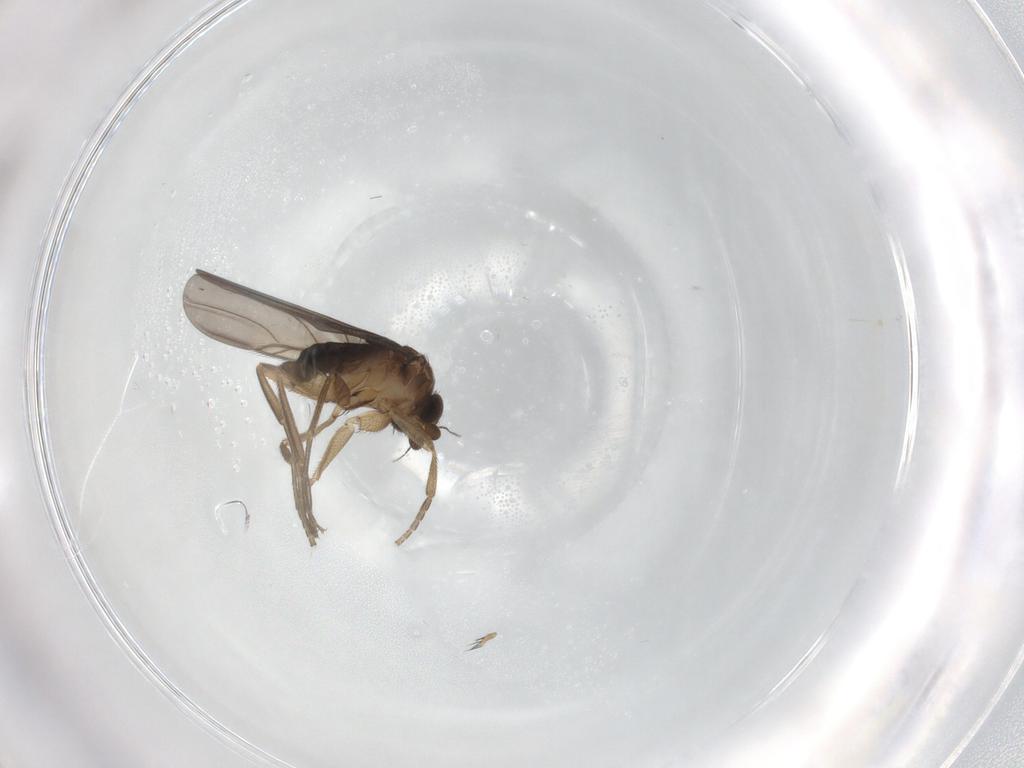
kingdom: Animalia
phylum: Arthropoda
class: Insecta
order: Diptera
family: Phoridae
